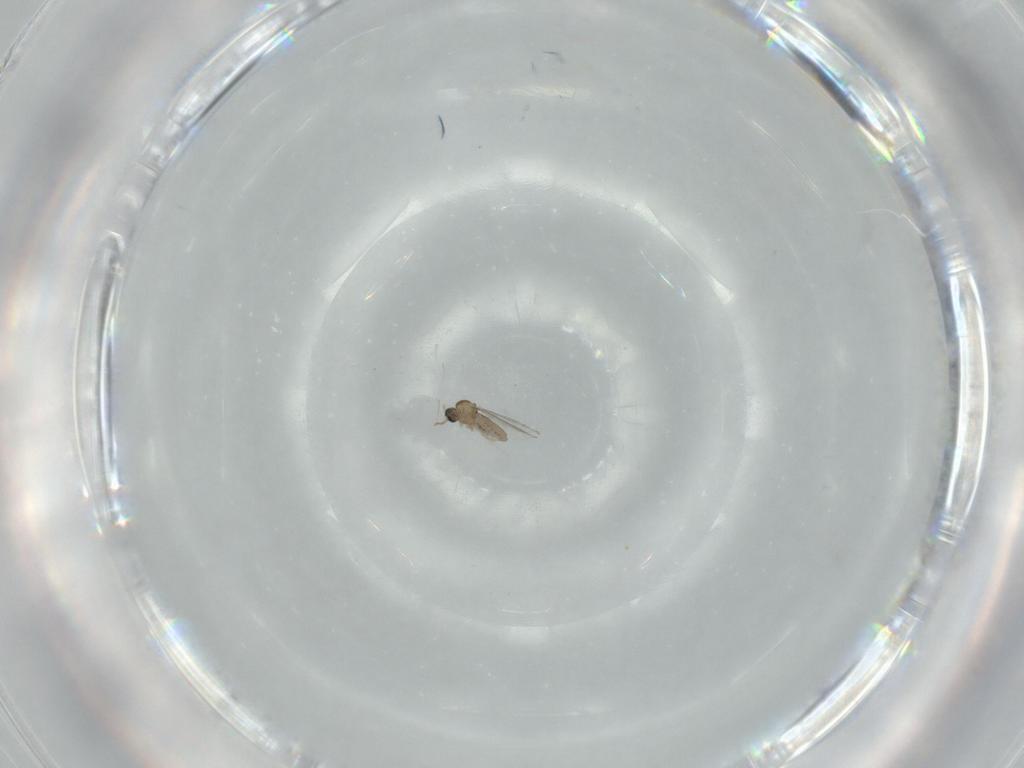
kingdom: Animalia
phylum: Arthropoda
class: Insecta
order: Diptera
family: Cecidomyiidae
